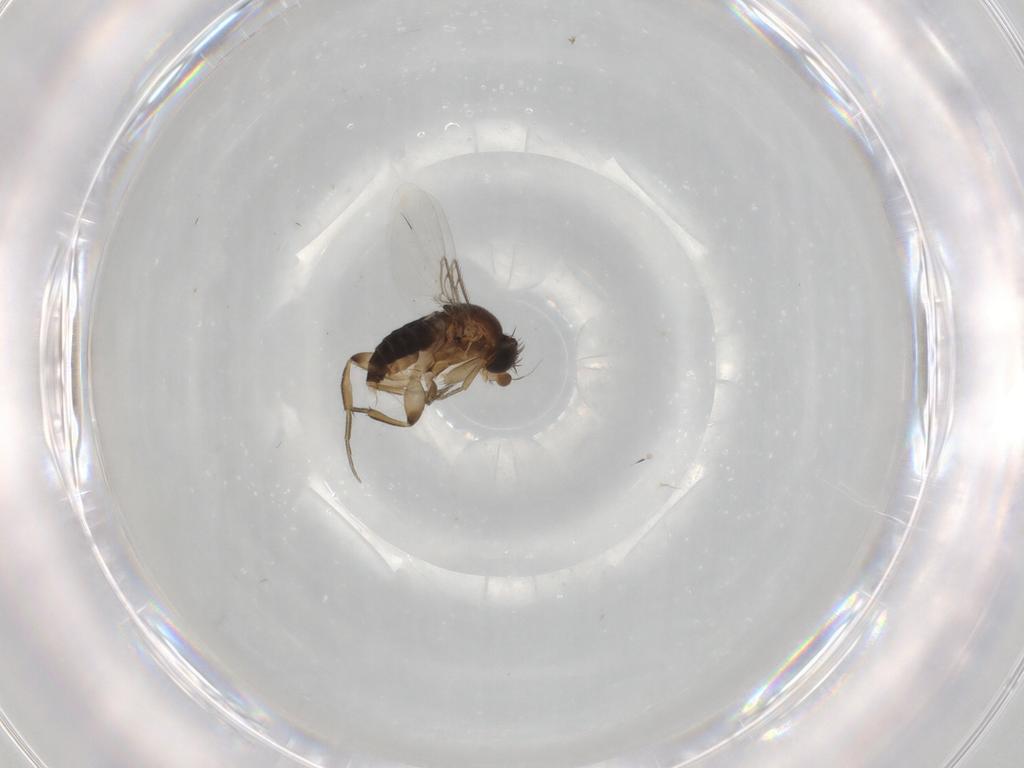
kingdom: Animalia
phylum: Arthropoda
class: Insecta
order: Diptera
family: Phoridae
